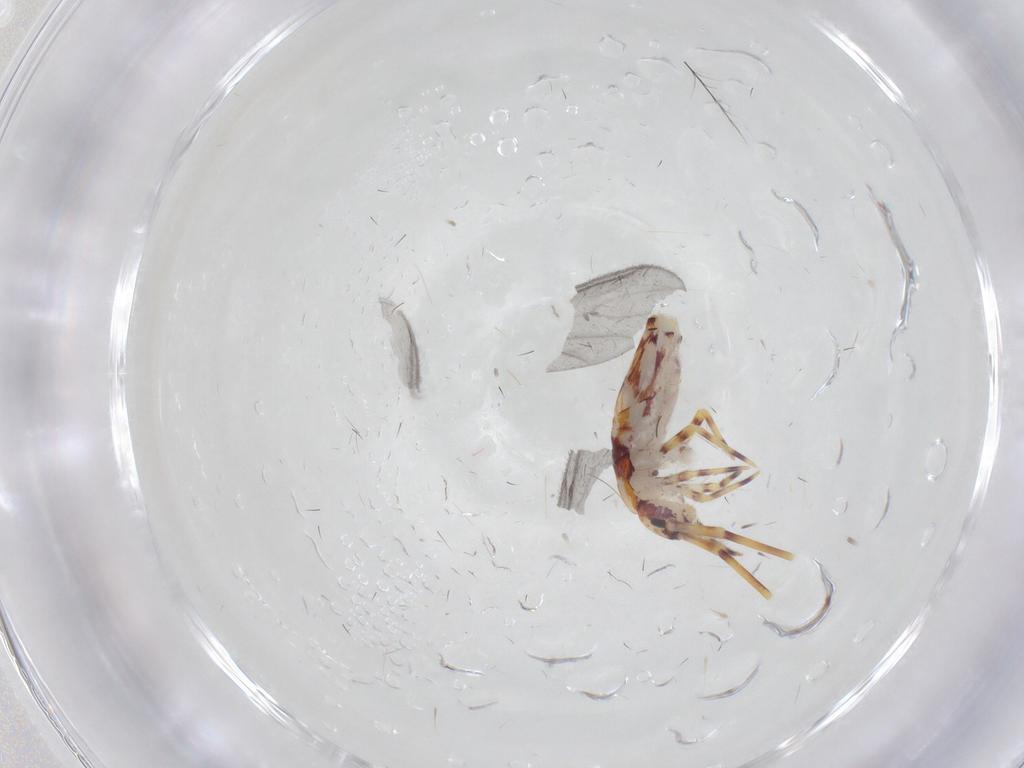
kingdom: Animalia
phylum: Arthropoda
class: Collembola
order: Entomobryomorpha
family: Entomobryidae
